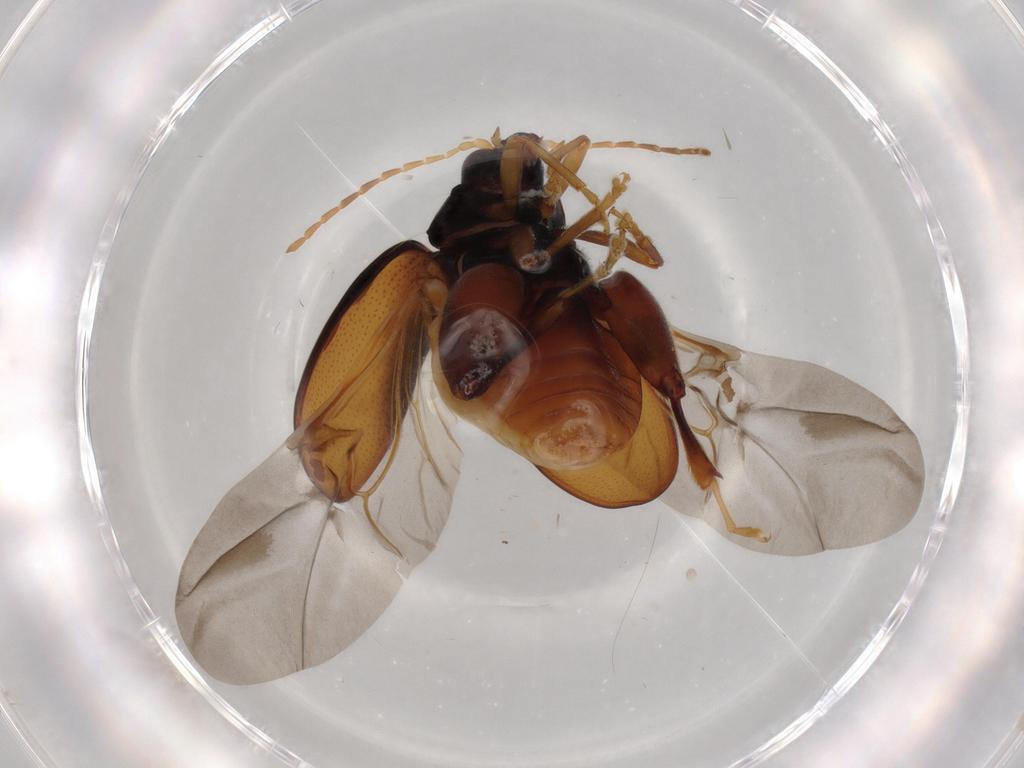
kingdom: Animalia
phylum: Arthropoda
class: Insecta
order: Coleoptera
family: Chrysomelidae
